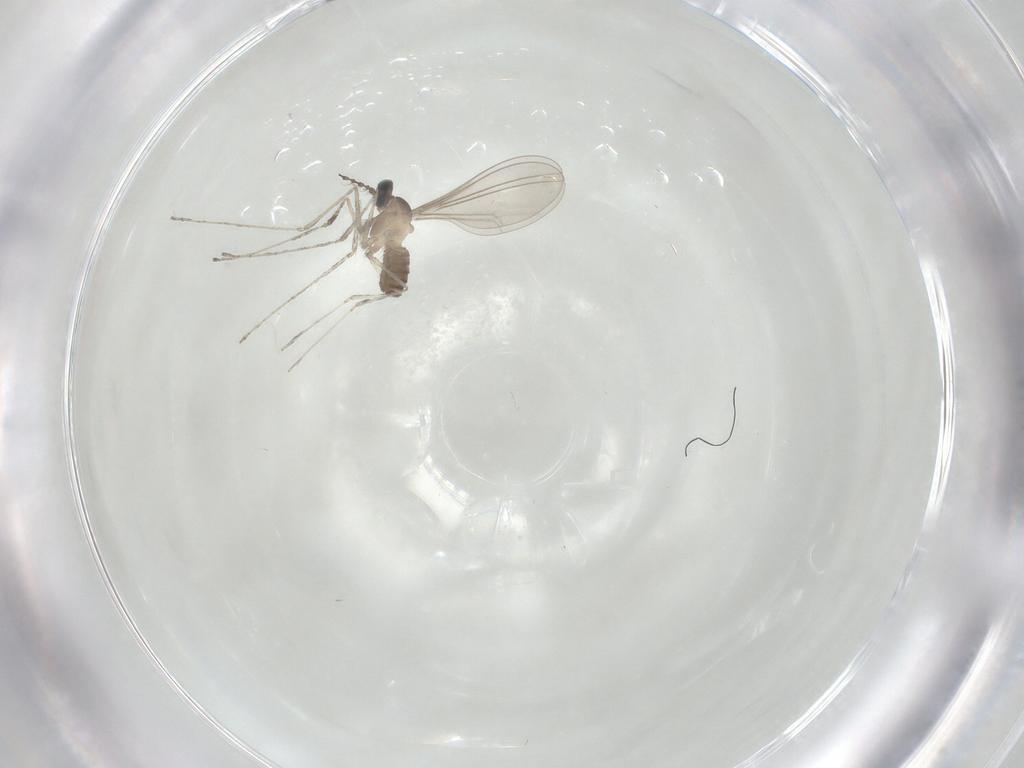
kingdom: Animalia
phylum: Arthropoda
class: Insecta
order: Diptera
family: Cecidomyiidae
